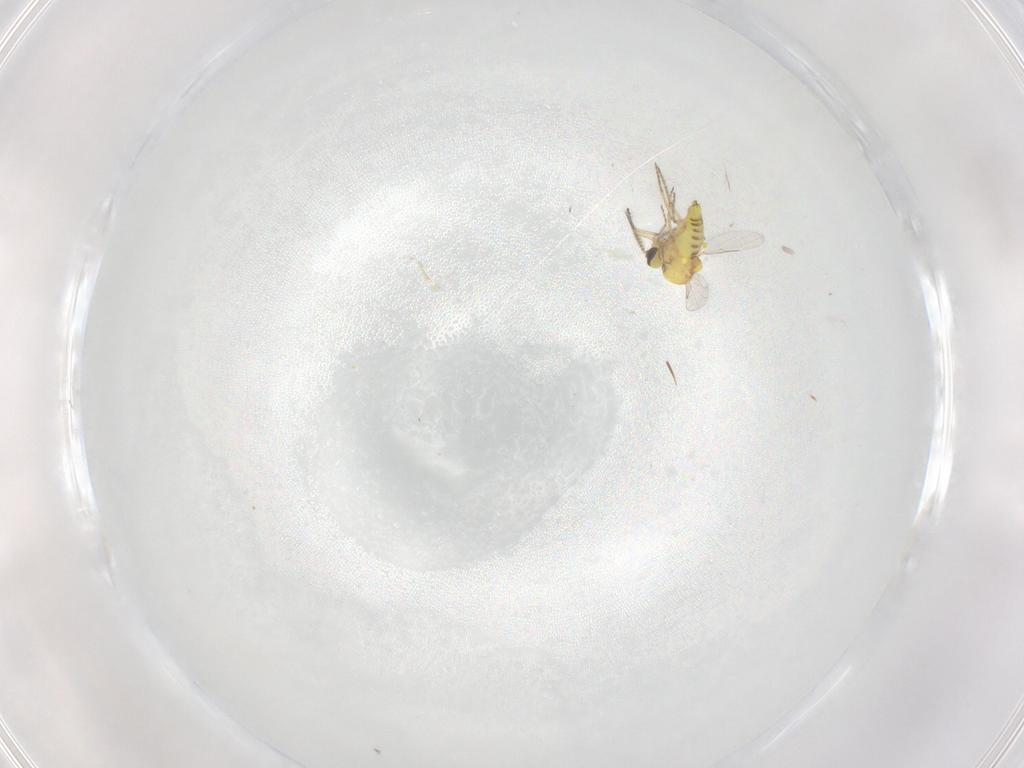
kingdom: Animalia
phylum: Arthropoda
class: Insecta
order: Diptera
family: Ceratopogonidae
